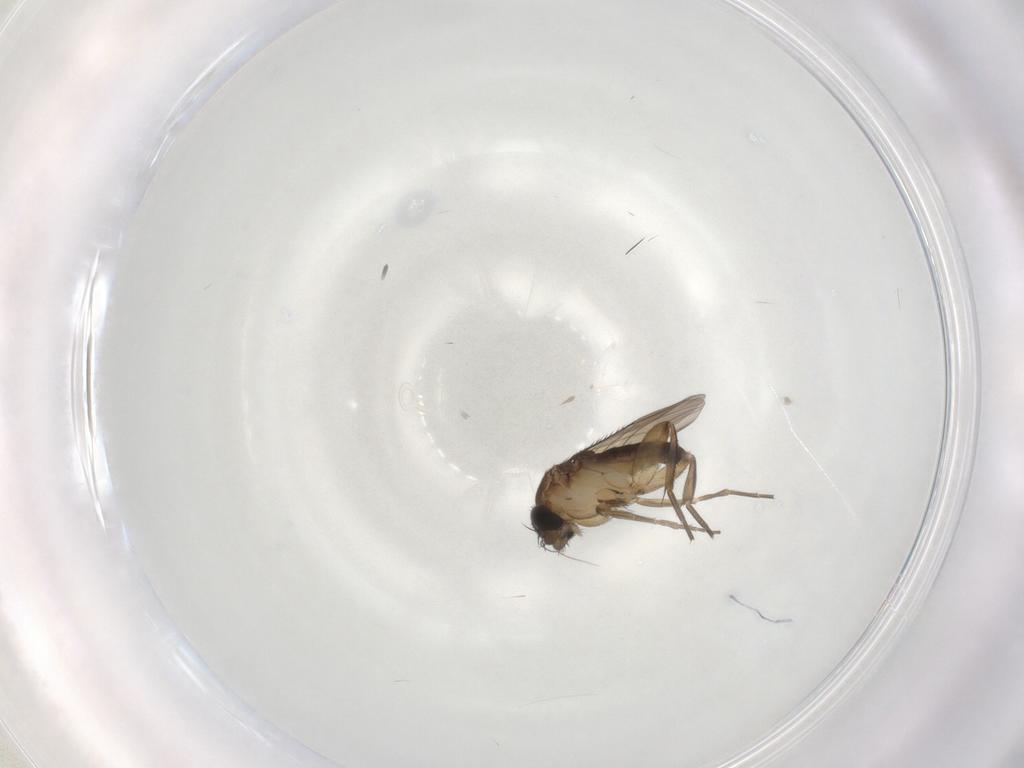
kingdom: Animalia
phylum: Arthropoda
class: Insecta
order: Diptera
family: Phoridae
